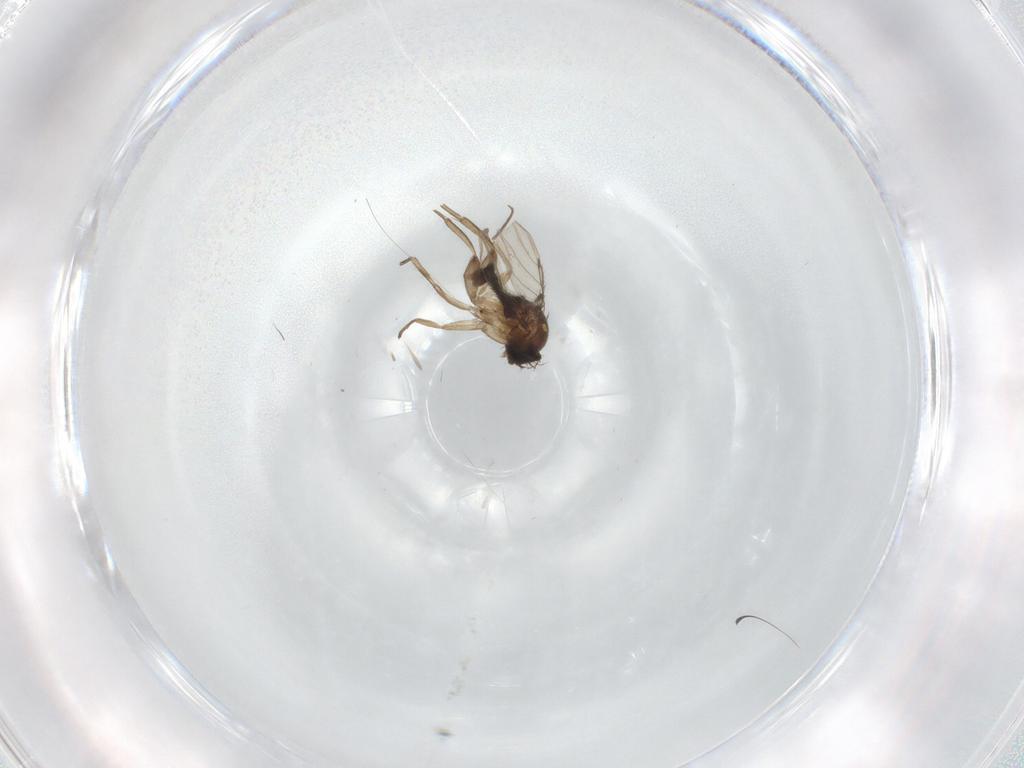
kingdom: Animalia
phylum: Arthropoda
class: Insecta
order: Diptera
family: Phoridae
